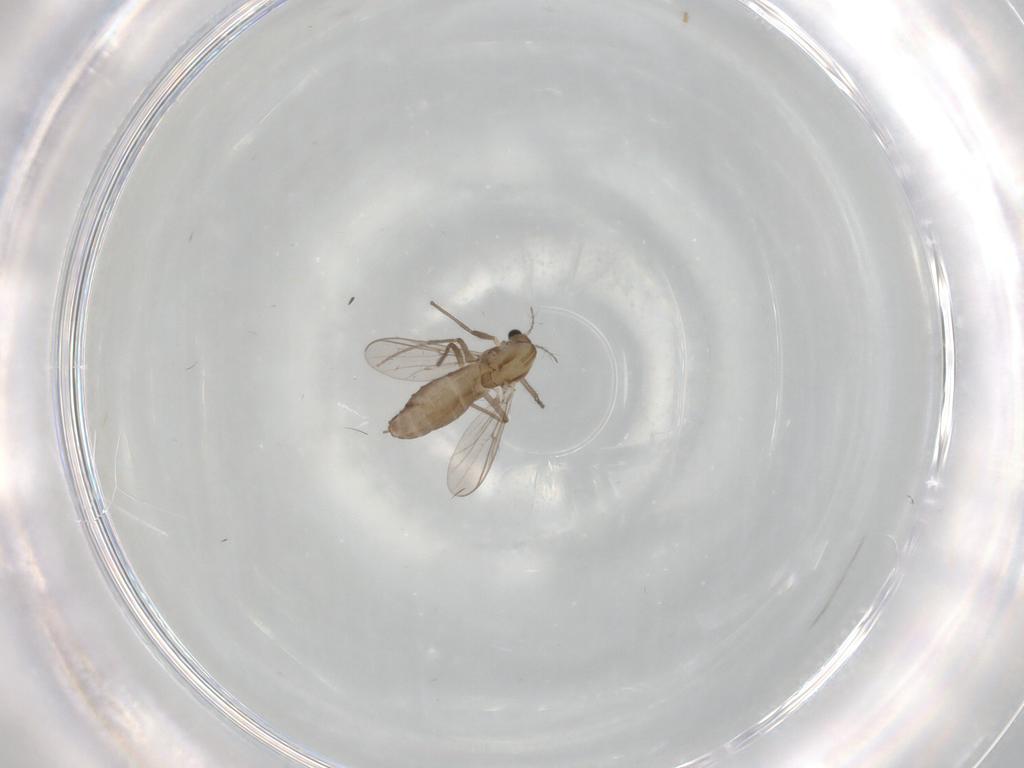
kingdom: Animalia
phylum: Arthropoda
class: Insecta
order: Diptera
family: Chironomidae
